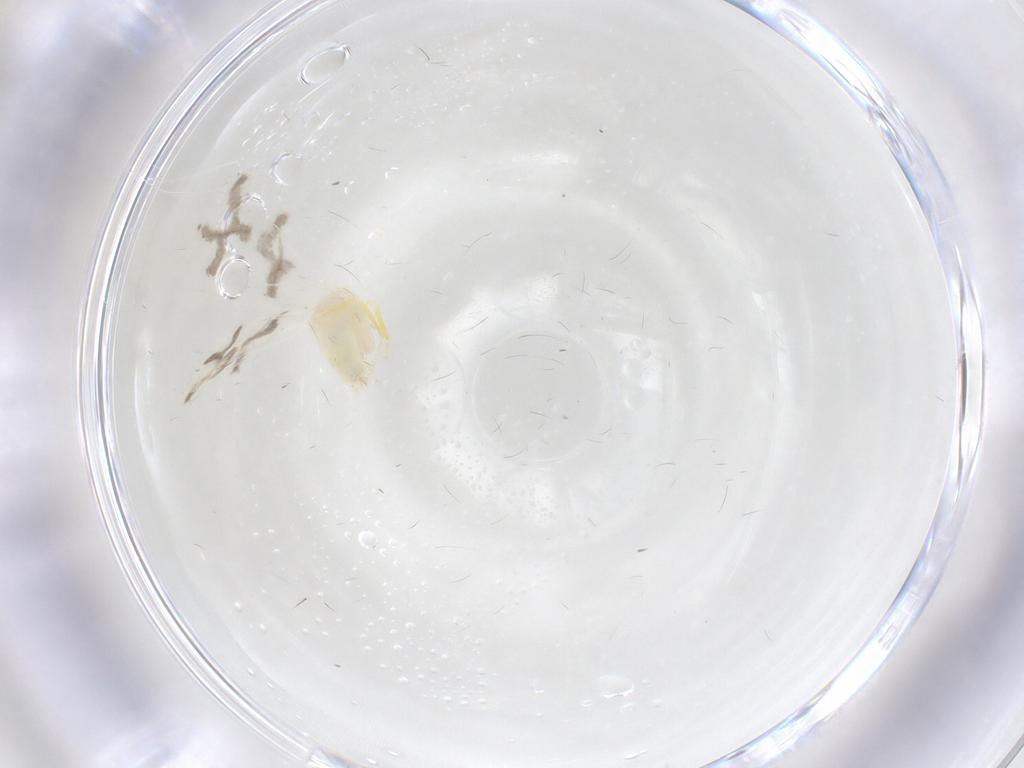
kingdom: Animalia
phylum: Arthropoda
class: Insecta
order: Hemiptera
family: Aleyrodidae
